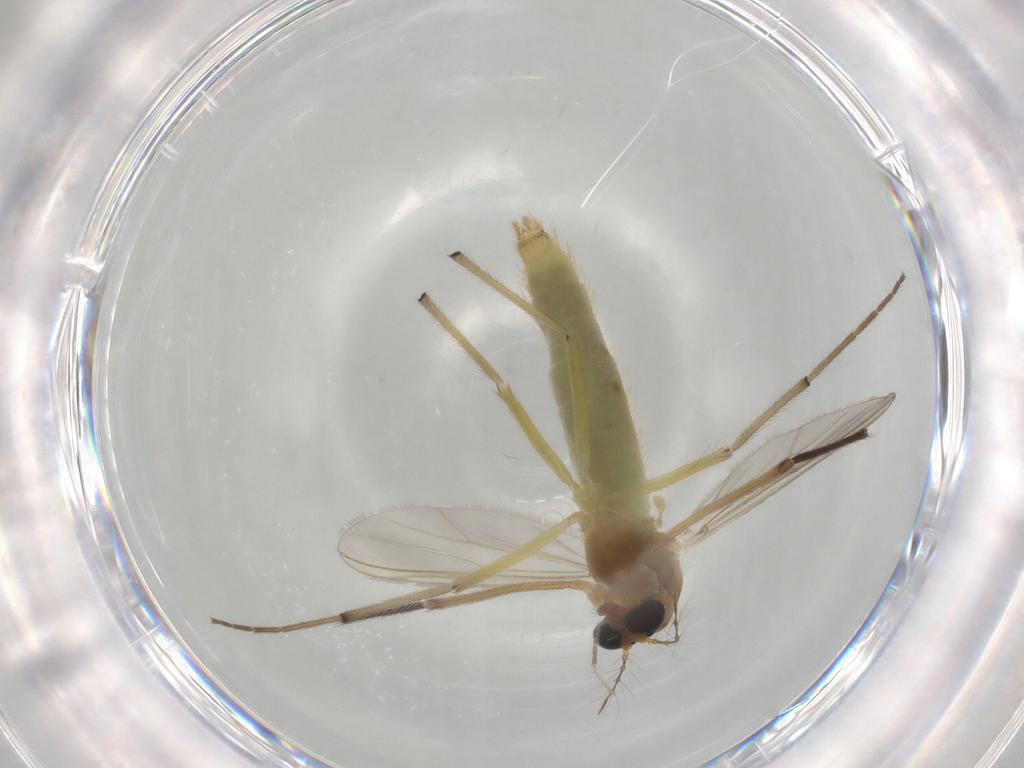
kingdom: Animalia
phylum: Arthropoda
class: Insecta
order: Diptera
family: Chironomidae
